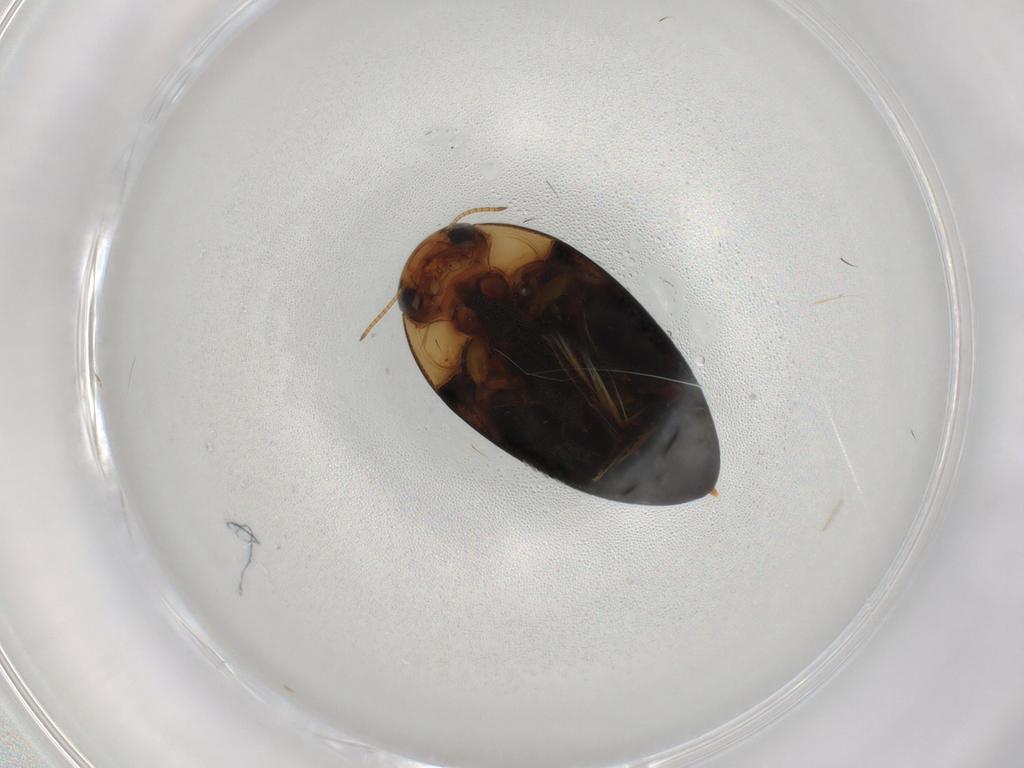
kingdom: Animalia
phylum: Arthropoda
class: Insecta
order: Coleoptera
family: Noteridae
